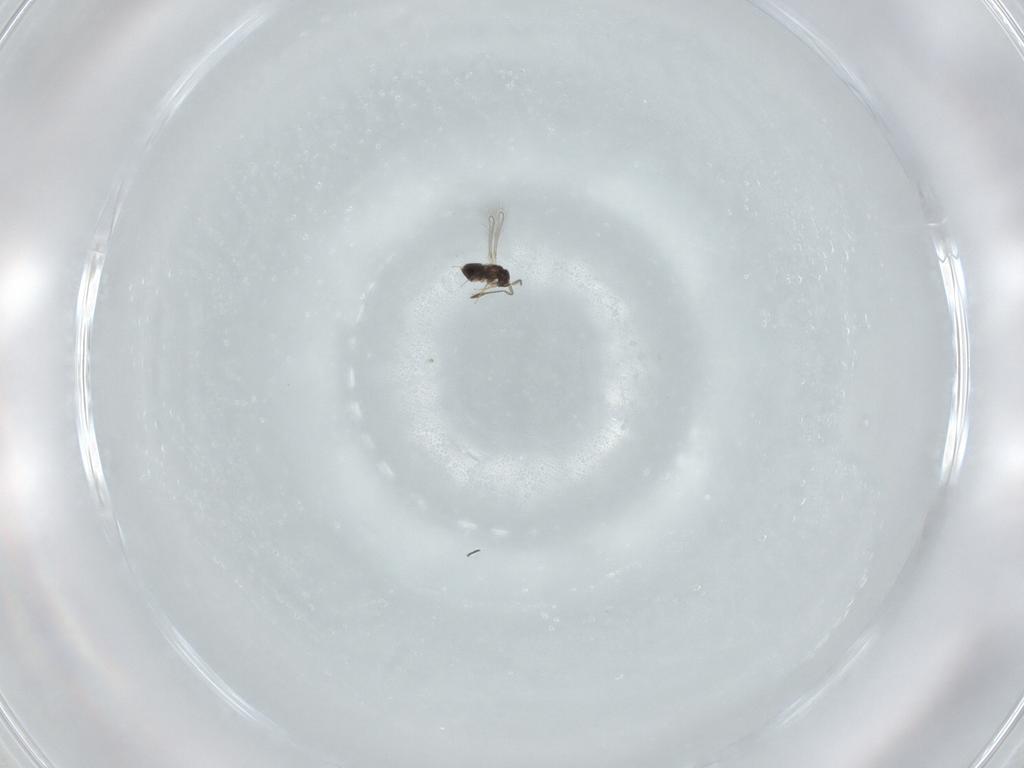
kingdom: Animalia
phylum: Arthropoda
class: Insecta
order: Hymenoptera
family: Mymaridae
